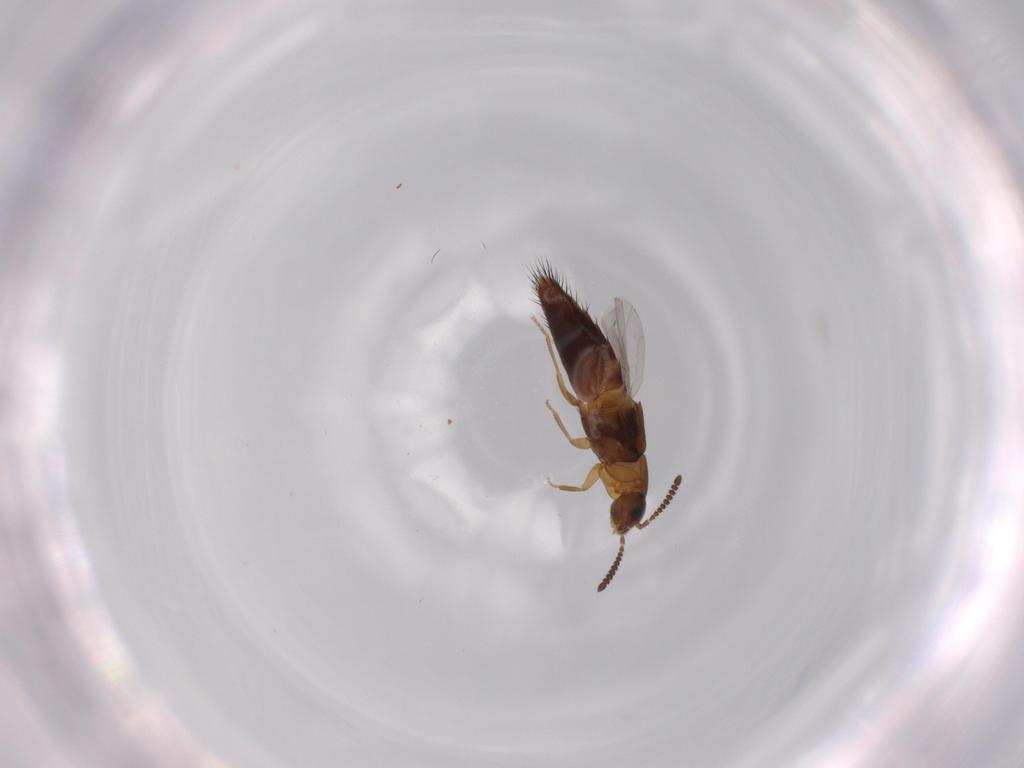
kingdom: Animalia
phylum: Arthropoda
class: Insecta
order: Coleoptera
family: Staphylinidae
